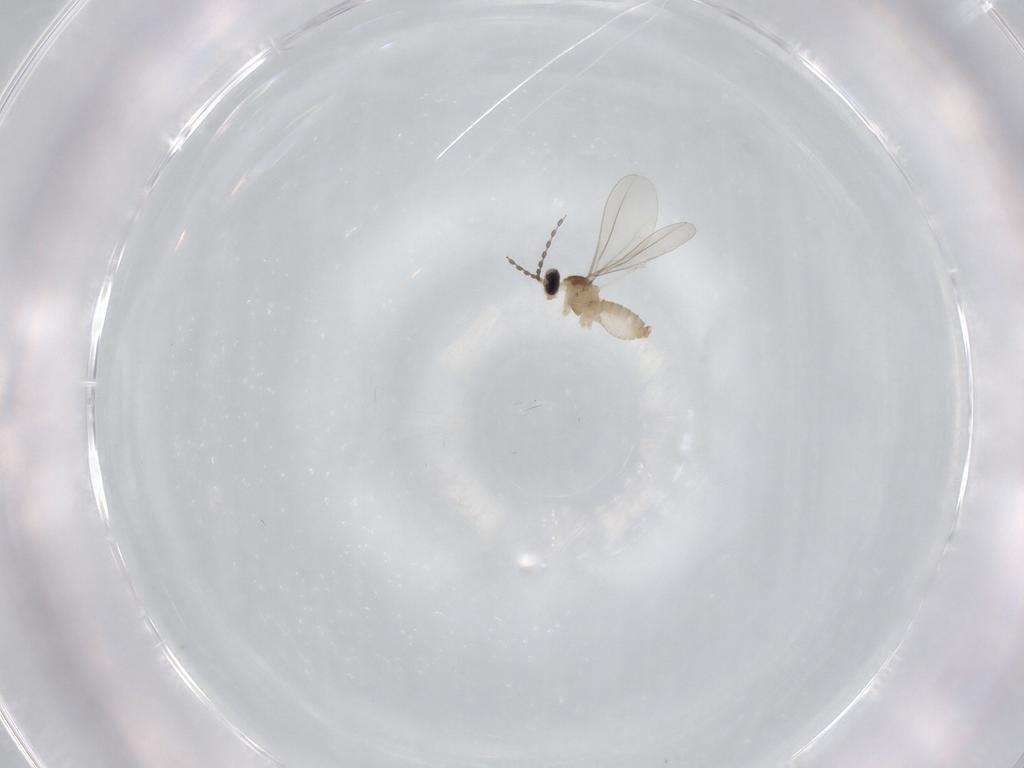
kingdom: Animalia
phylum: Arthropoda
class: Insecta
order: Diptera
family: Cecidomyiidae
